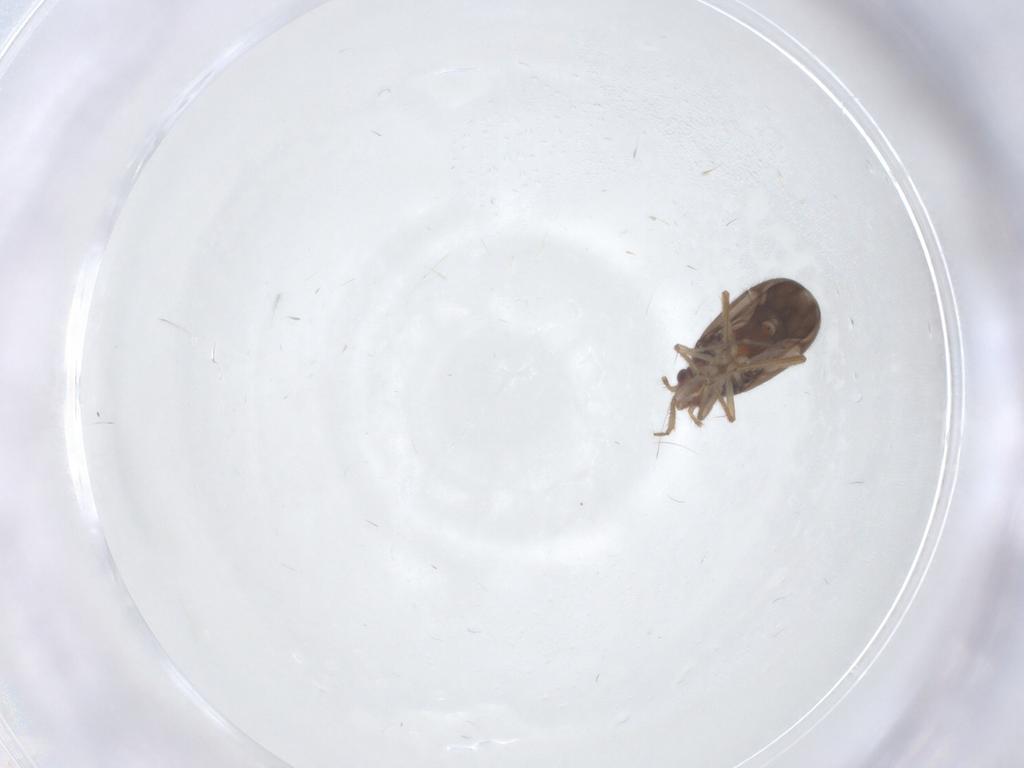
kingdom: Animalia
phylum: Arthropoda
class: Insecta
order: Hemiptera
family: Ceratocombidae
